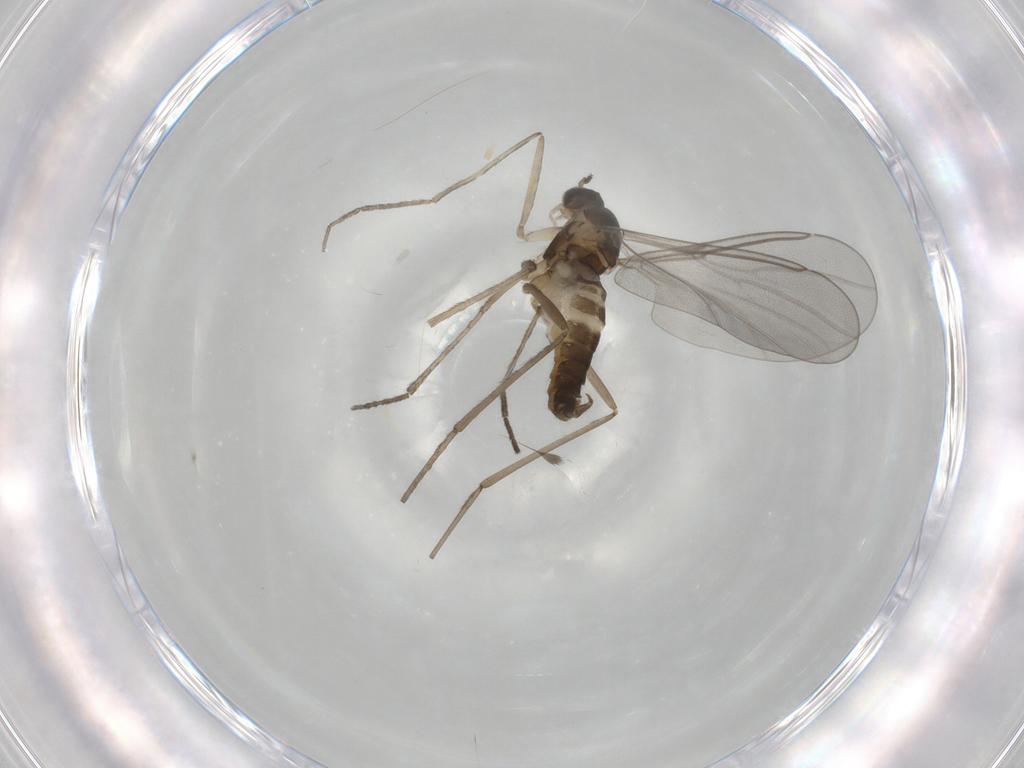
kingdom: Animalia
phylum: Arthropoda
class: Insecta
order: Diptera
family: Cecidomyiidae
